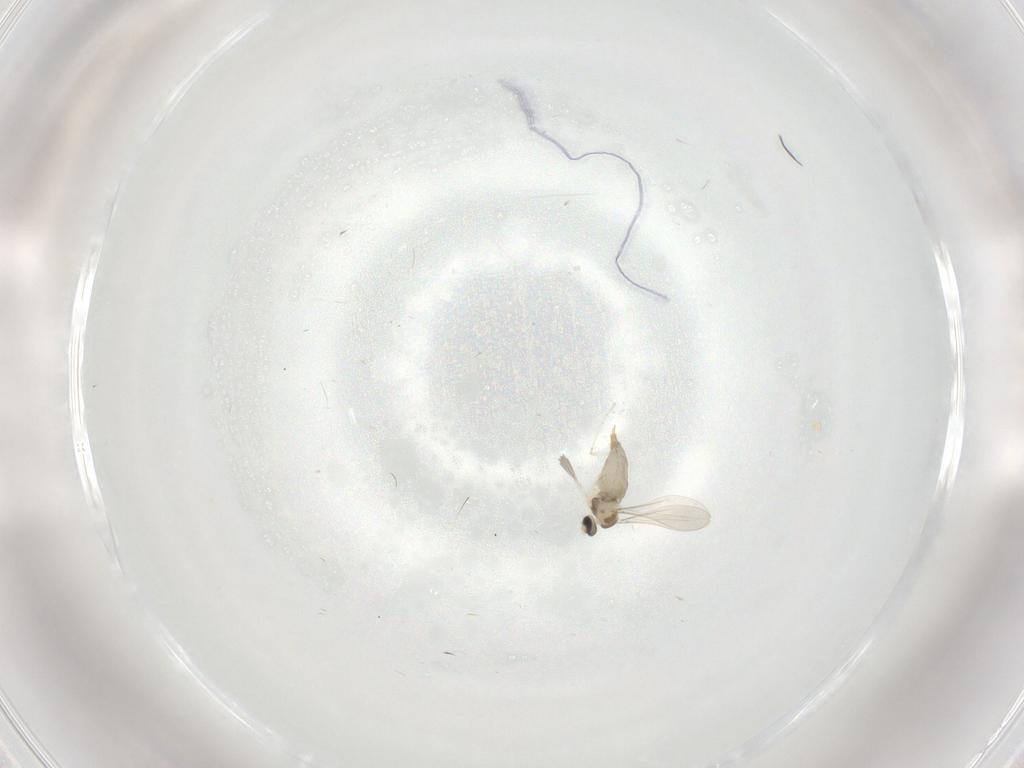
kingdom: Animalia
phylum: Arthropoda
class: Insecta
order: Diptera
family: Cecidomyiidae
